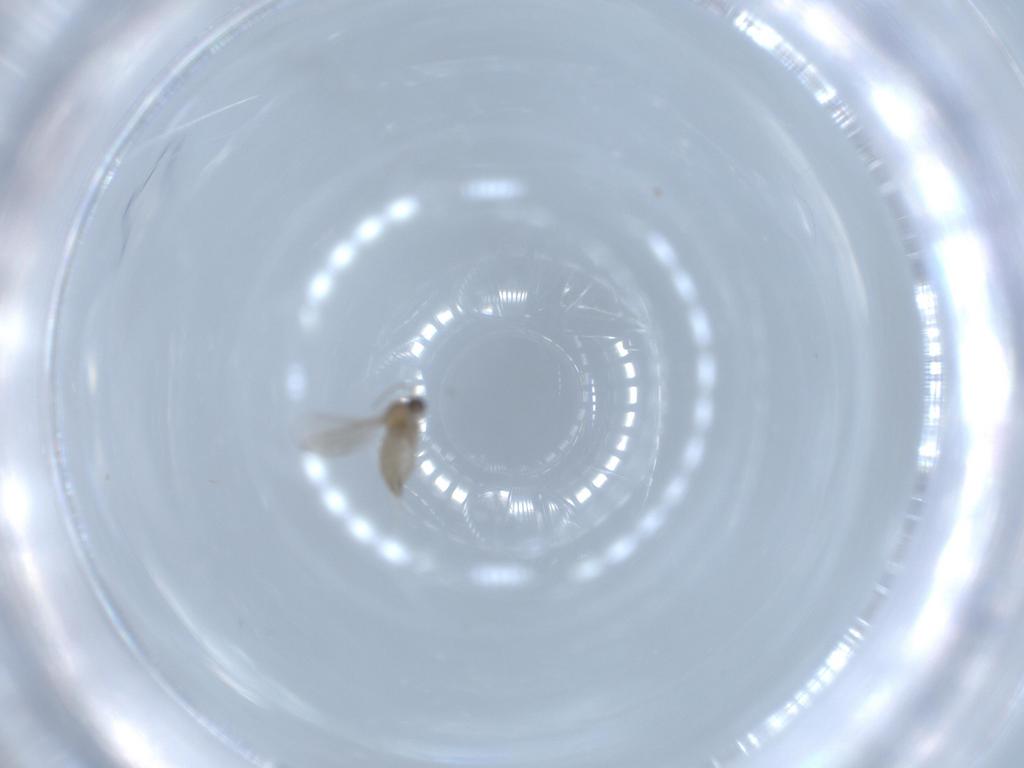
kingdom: Animalia
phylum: Arthropoda
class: Insecta
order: Diptera
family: Cecidomyiidae
